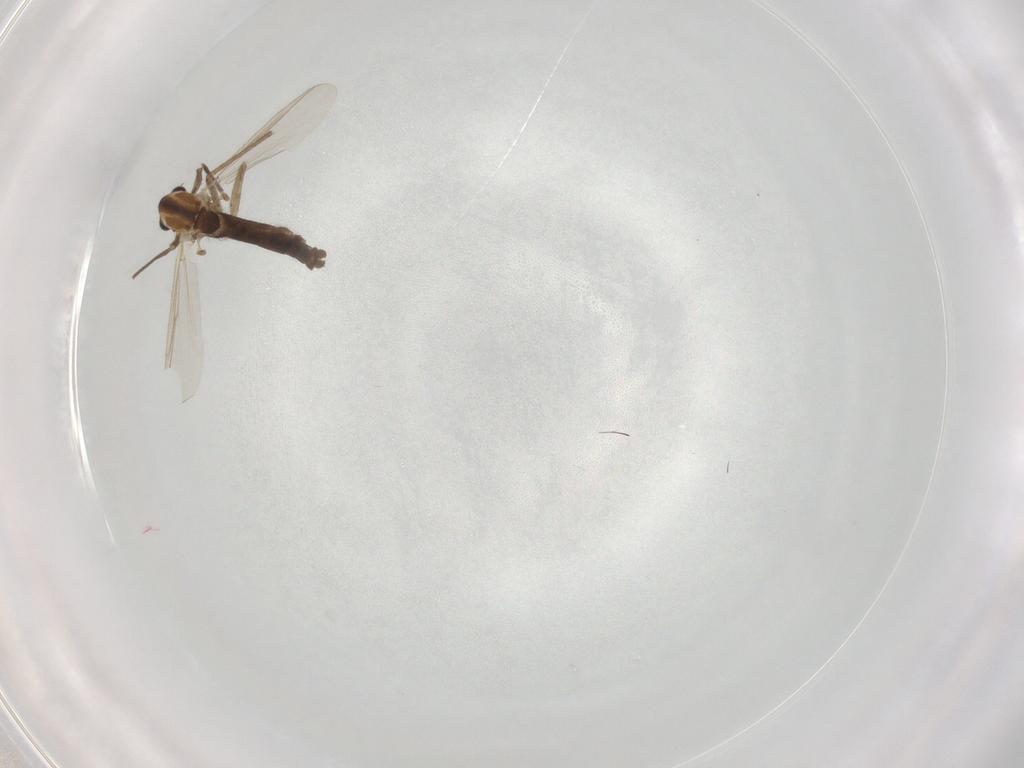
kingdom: Animalia
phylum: Arthropoda
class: Insecta
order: Diptera
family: Chironomidae
